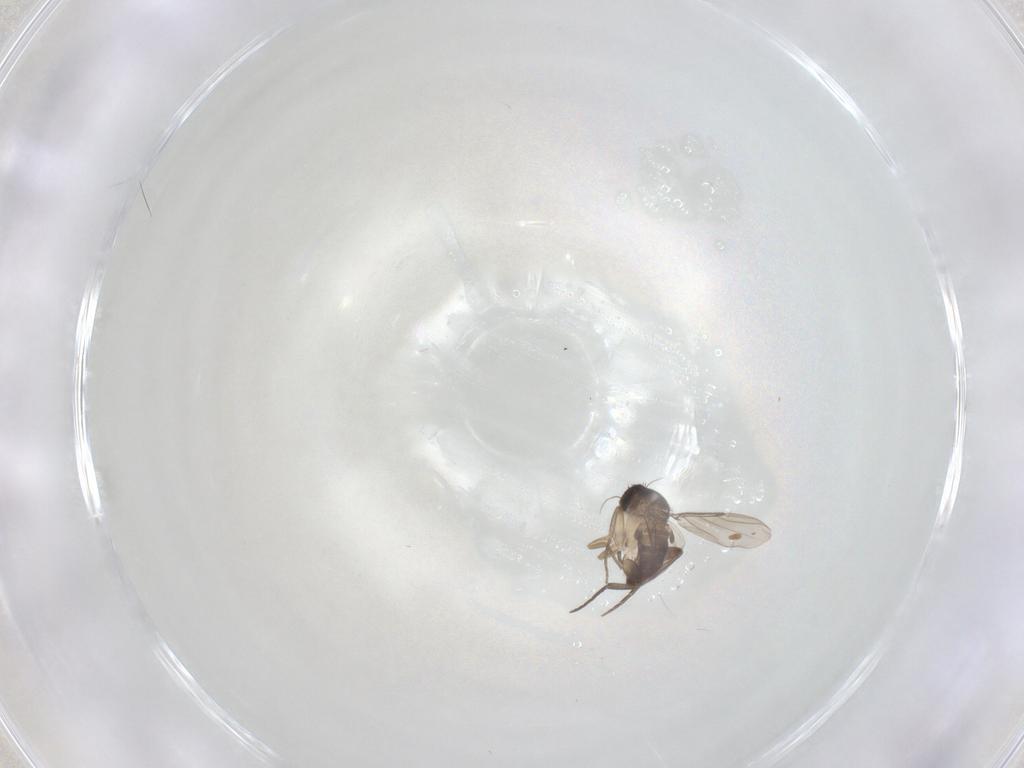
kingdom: Animalia
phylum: Arthropoda
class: Insecta
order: Diptera
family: Phoridae
